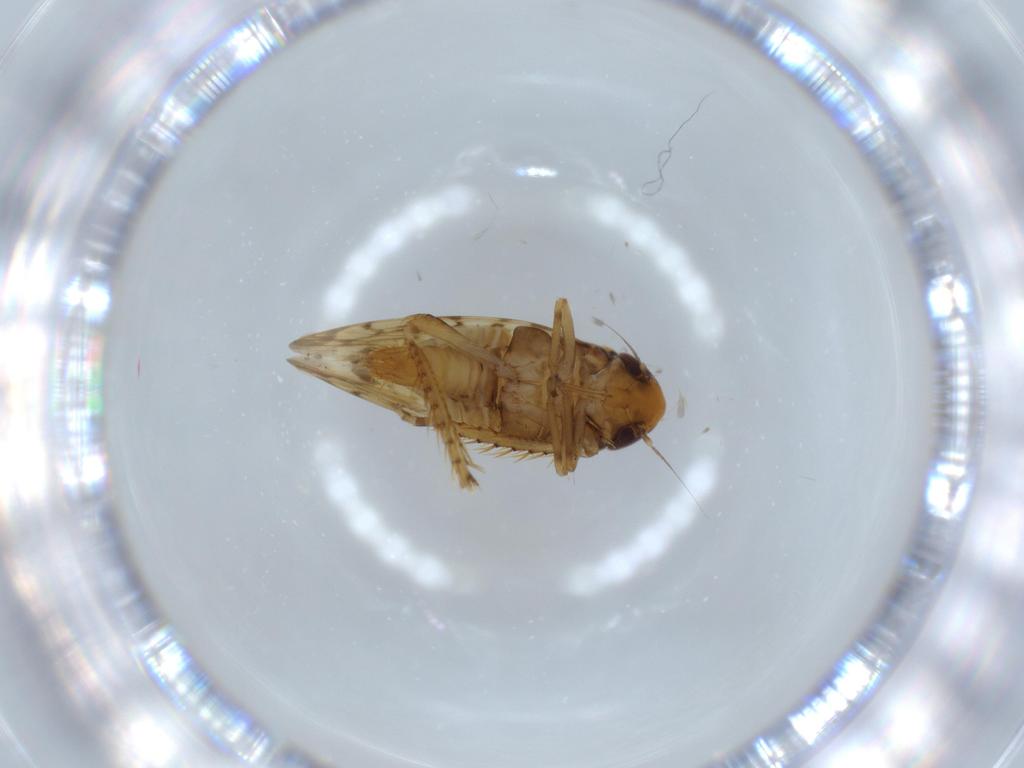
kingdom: Animalia
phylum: Arthropoda
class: Insecta
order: Hemiptera
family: Cicadellidae
